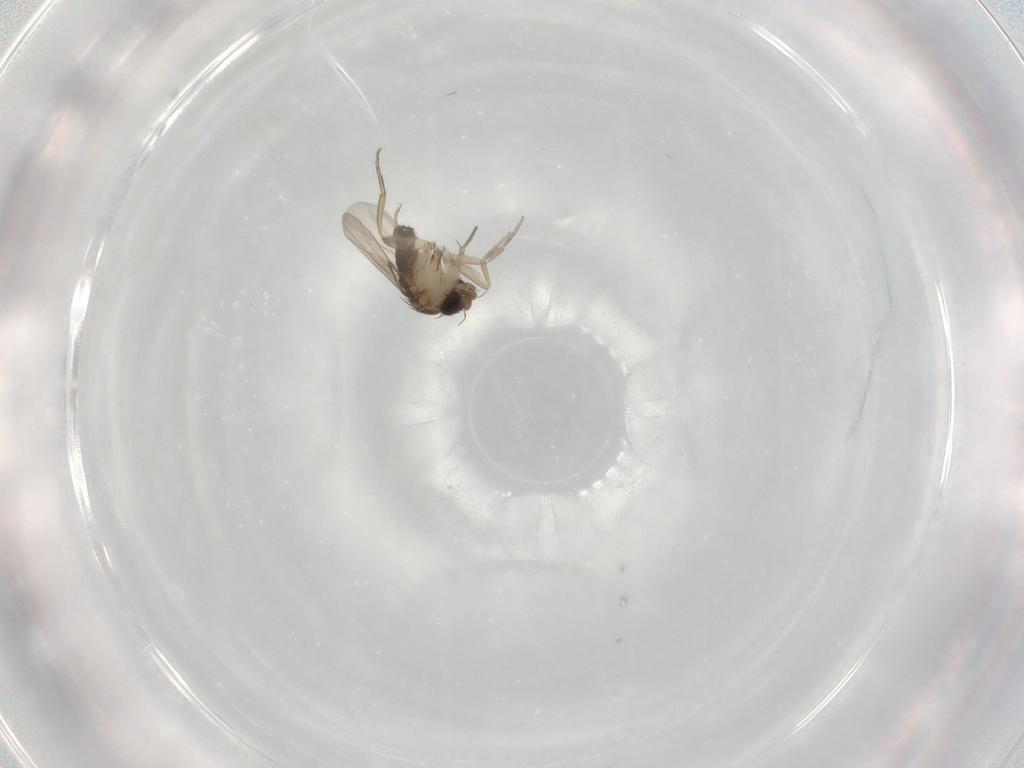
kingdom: Animalia
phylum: Arthropoda
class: Insecta
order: Diptera
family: Phoridae
